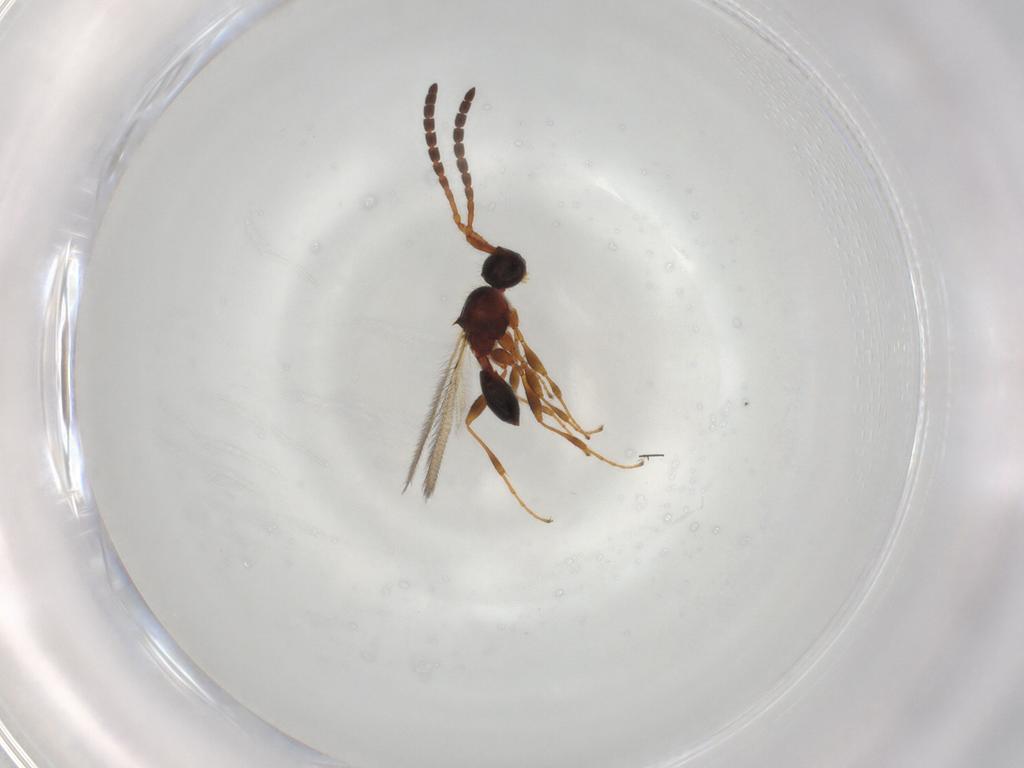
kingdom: Animalia
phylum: Arthropoda
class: Insecta
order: Hymenoptera
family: Diapriidae
